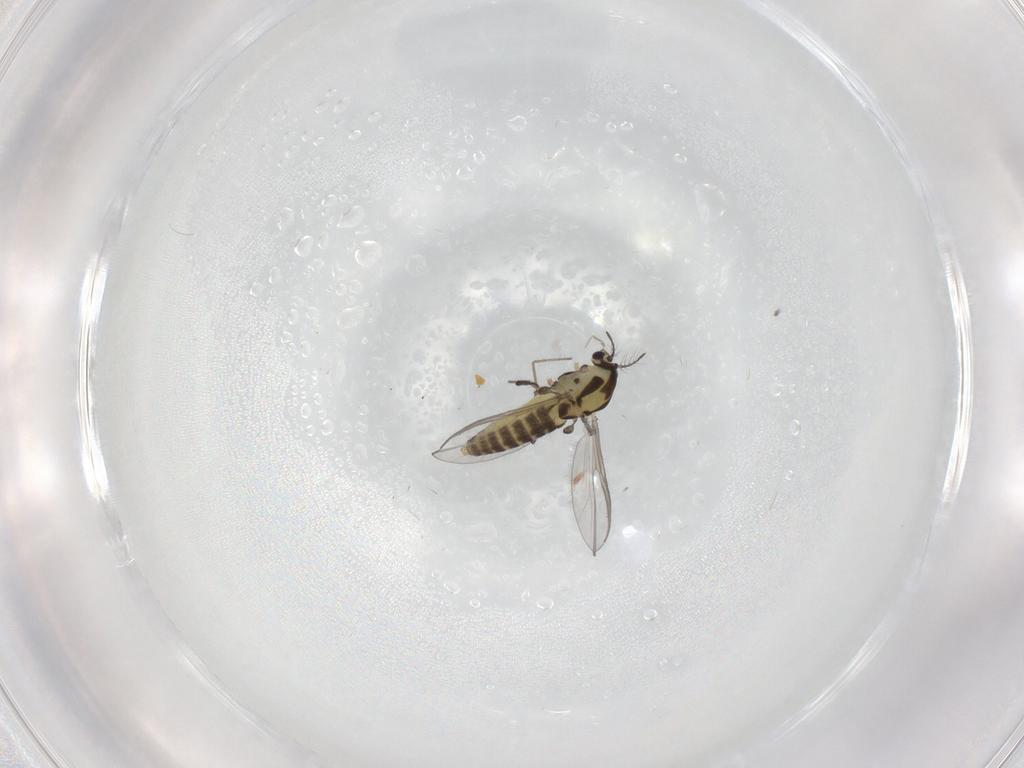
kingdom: Animalia
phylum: Arthropoda
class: Insecta
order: Diptera
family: Chironomidae
